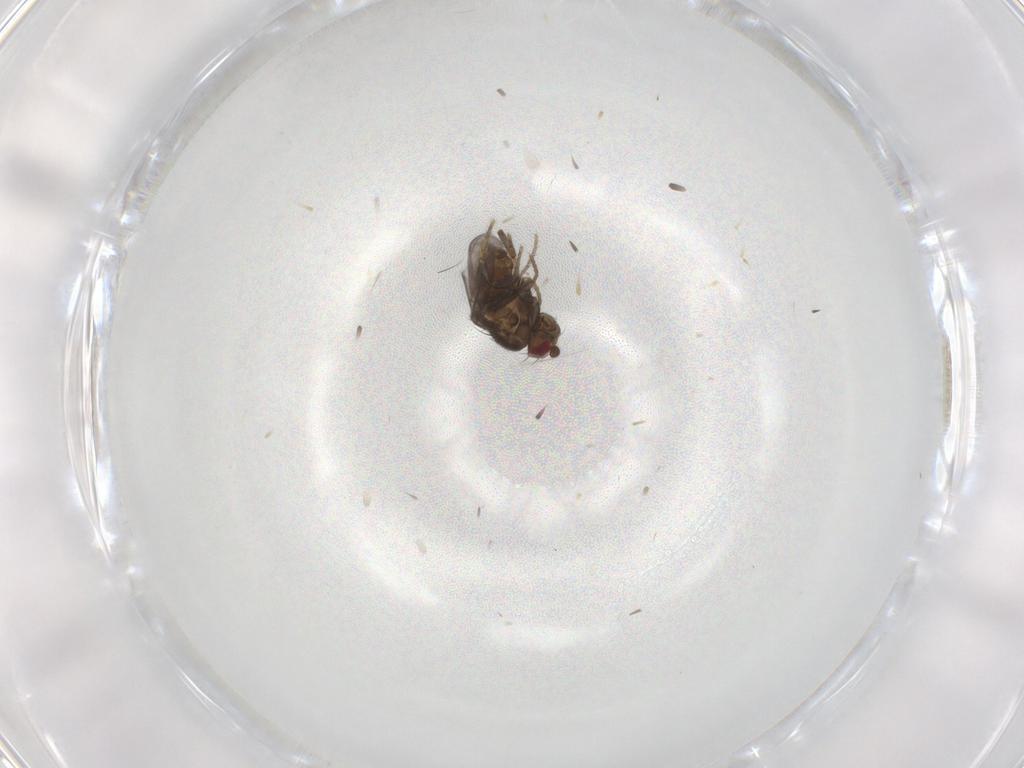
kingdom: Animalia
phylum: Arthropoda
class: Insecta
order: Diptera
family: Sphaeroceridae
